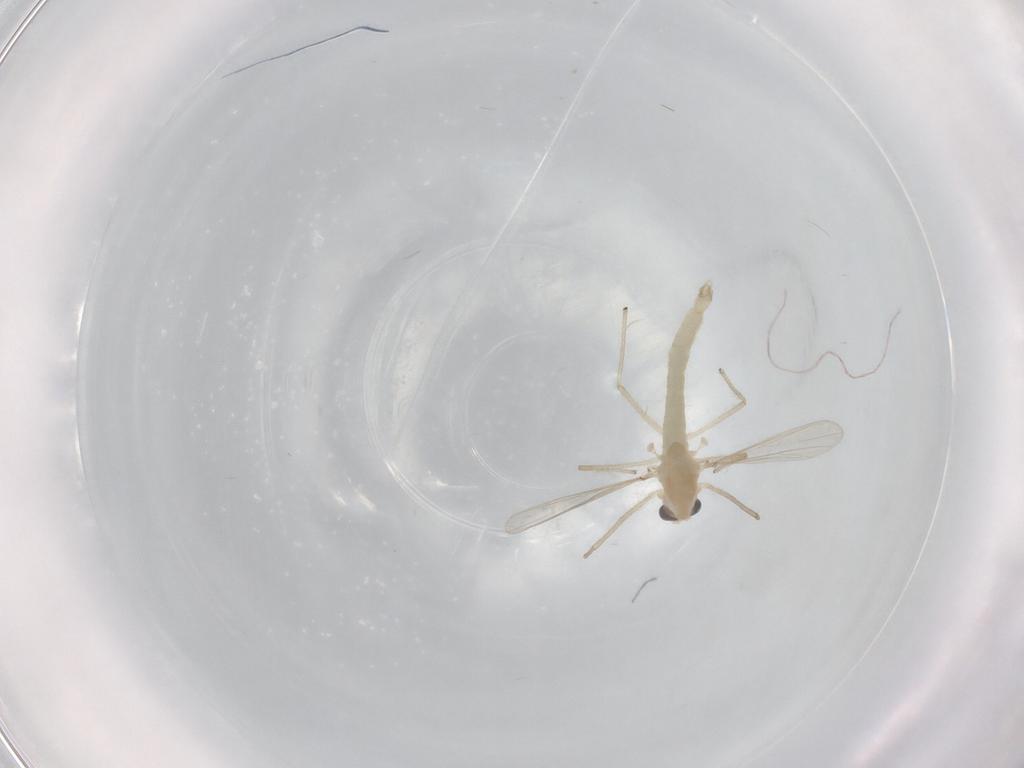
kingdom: Animalia
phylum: Arthropoda
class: Insecta
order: Diptera
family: Chironomidae
